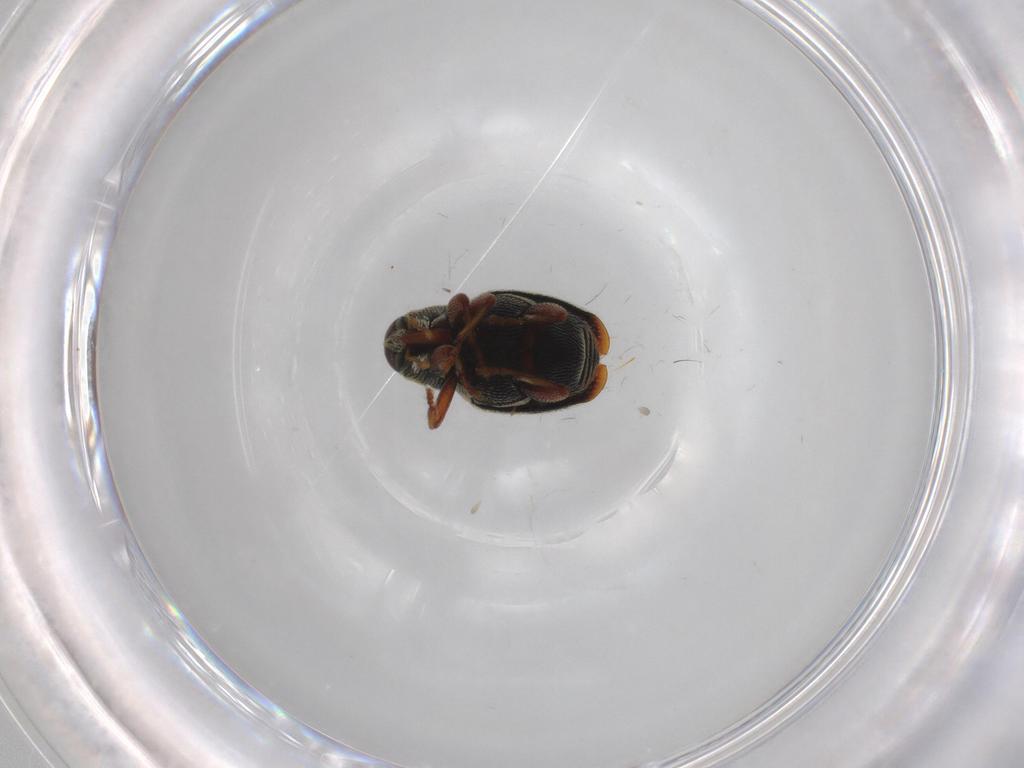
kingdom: Animalia
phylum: Arthropoda
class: Insecta
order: Coleoptera
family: Curculionidae
